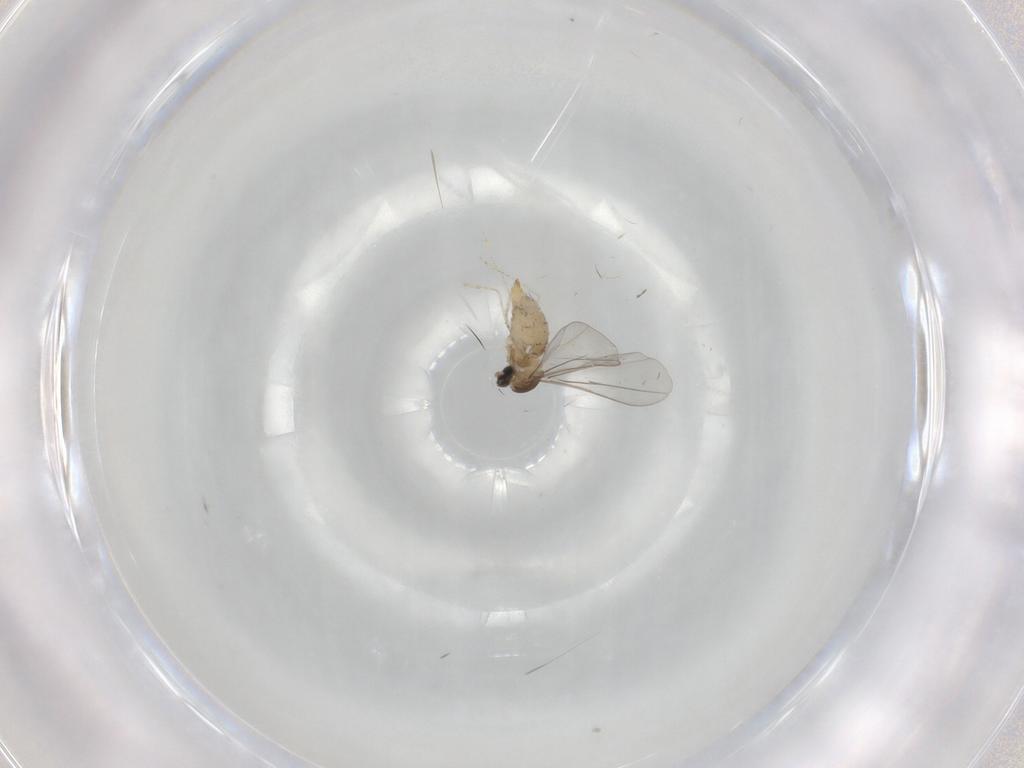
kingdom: Animalia
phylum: Arthropoda
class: Insecta
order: Diptera
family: Cecidomyiidae
